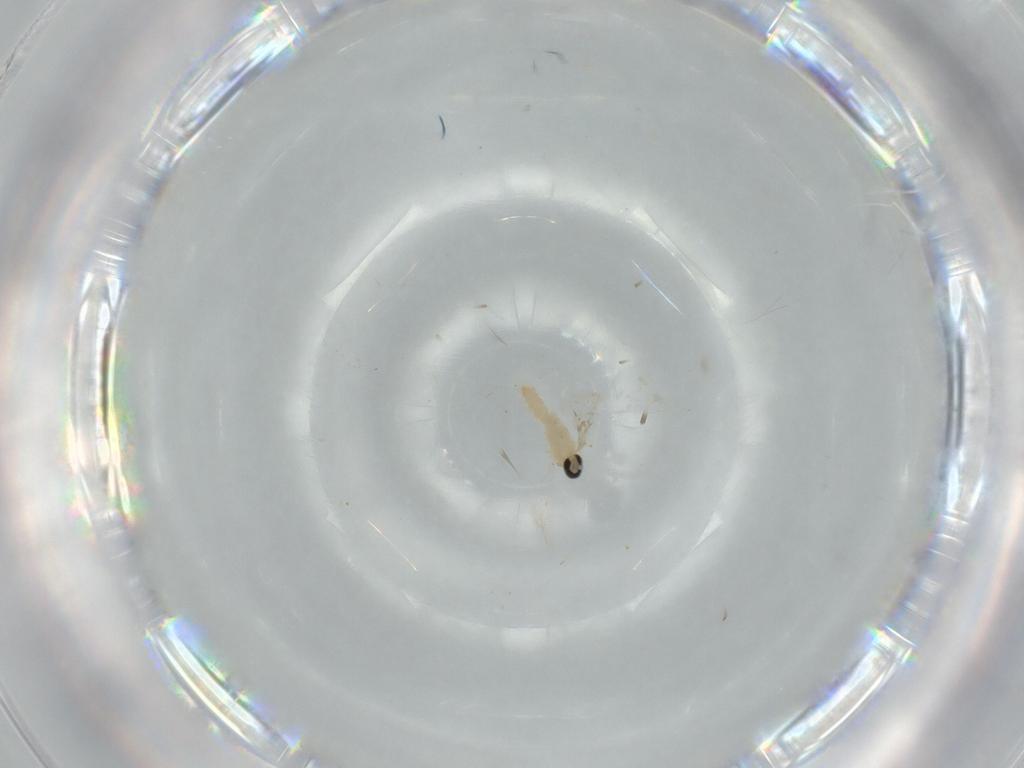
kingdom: Animalia
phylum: Arthropoda
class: Insecta
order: Diptera
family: Cecidomyiidae
